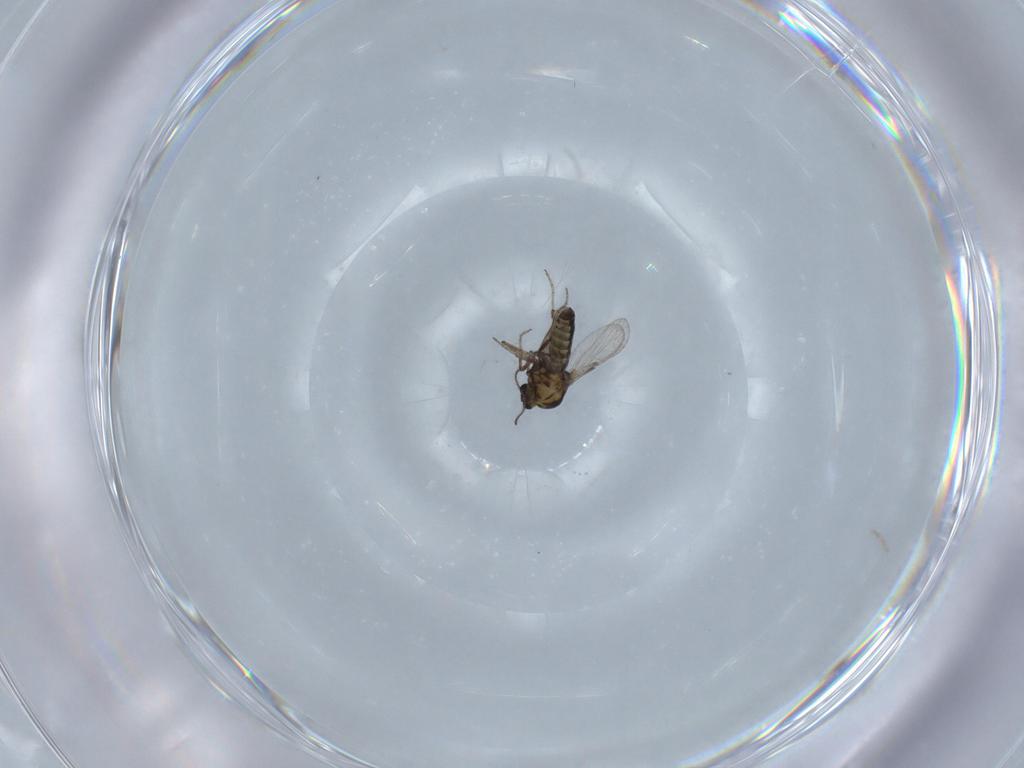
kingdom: Animalia
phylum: Arthropoda
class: Insecta
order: Diptera
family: Ceratopogonidae
